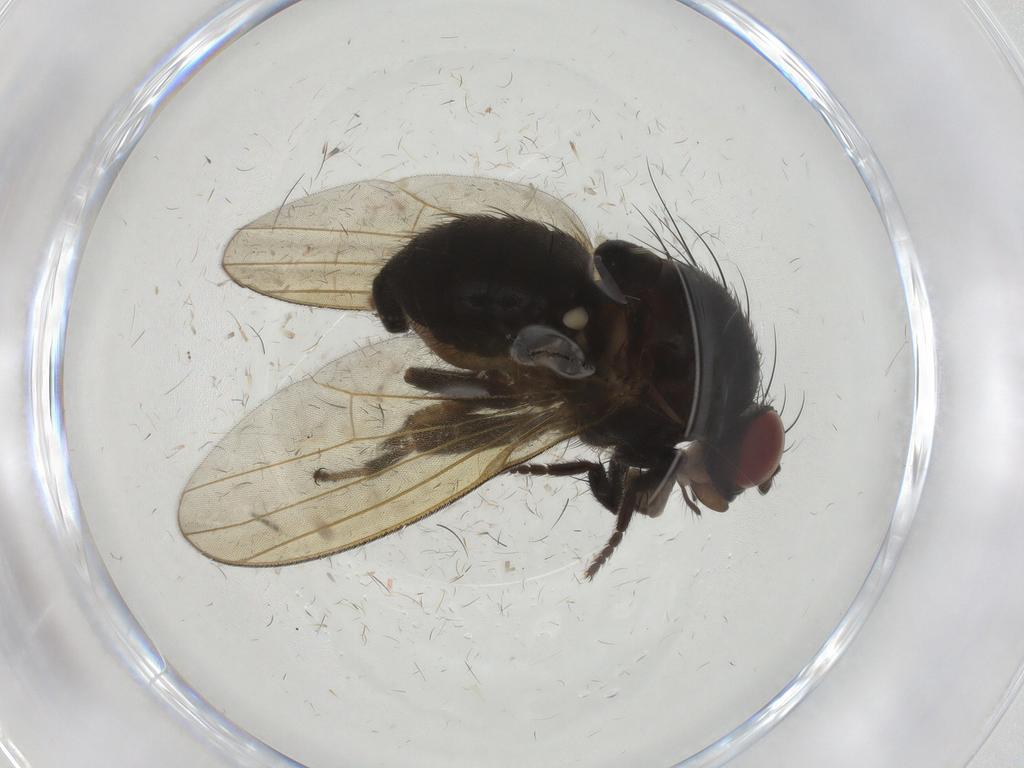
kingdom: Animalia
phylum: Arthropoda
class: Insecta
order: Diptera
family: Cecidomyiidae
